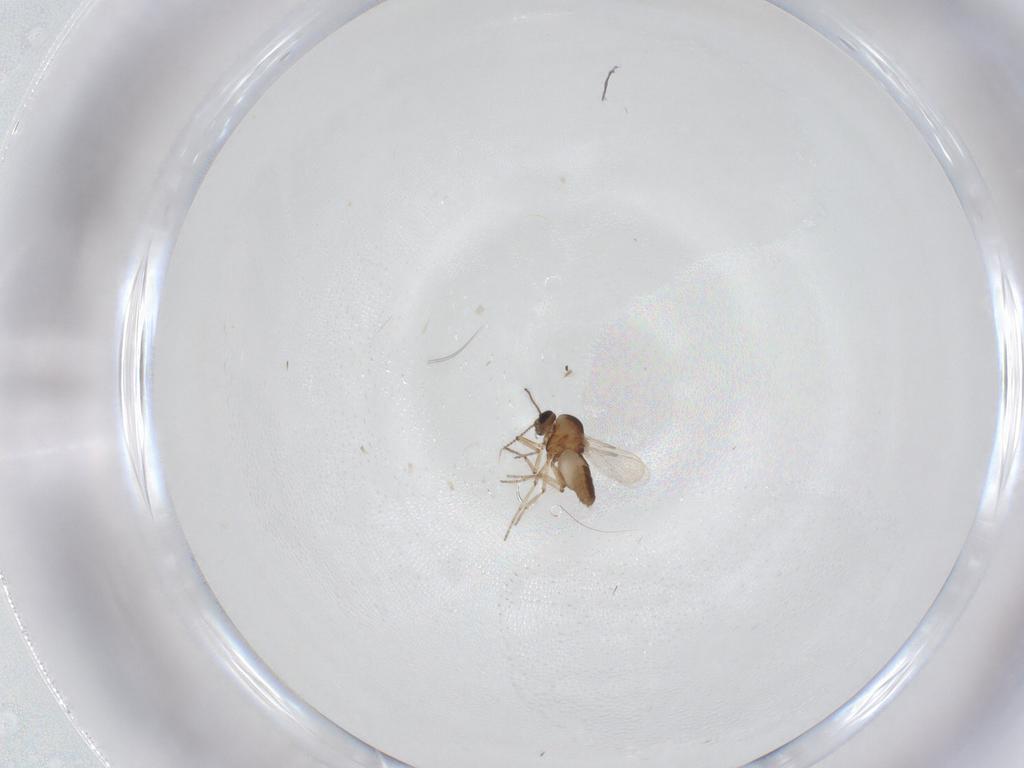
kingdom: Animalia
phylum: Arthropoda
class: Insecta
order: Diptera
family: Ceratopogonidae
